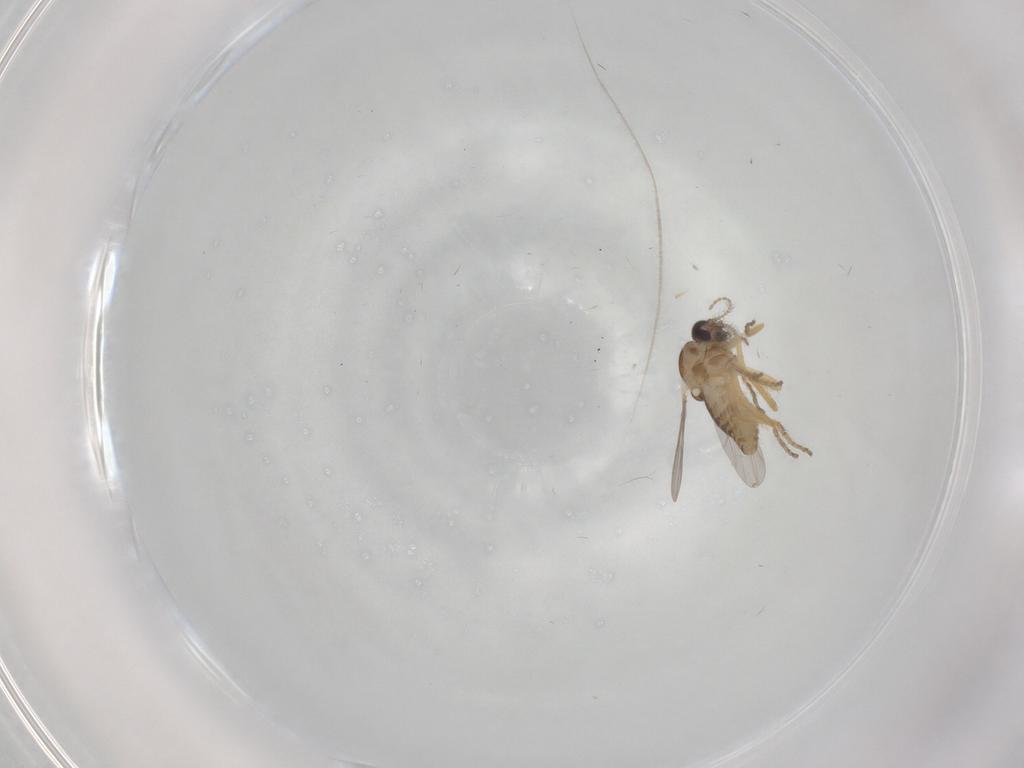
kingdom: Animalia
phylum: Arthropoda
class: Insecta
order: Diptera
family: Ceratopogonidae
